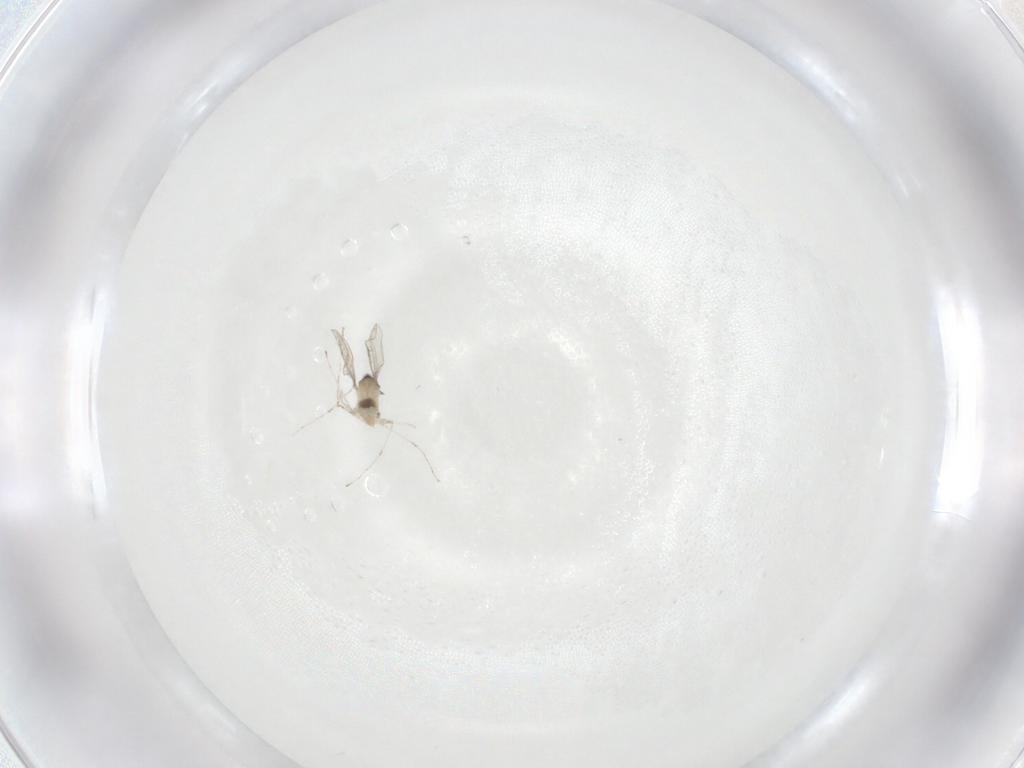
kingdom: Animalia
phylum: Arthropoda
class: Insecta
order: Diptera
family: Cecidomyiidae
